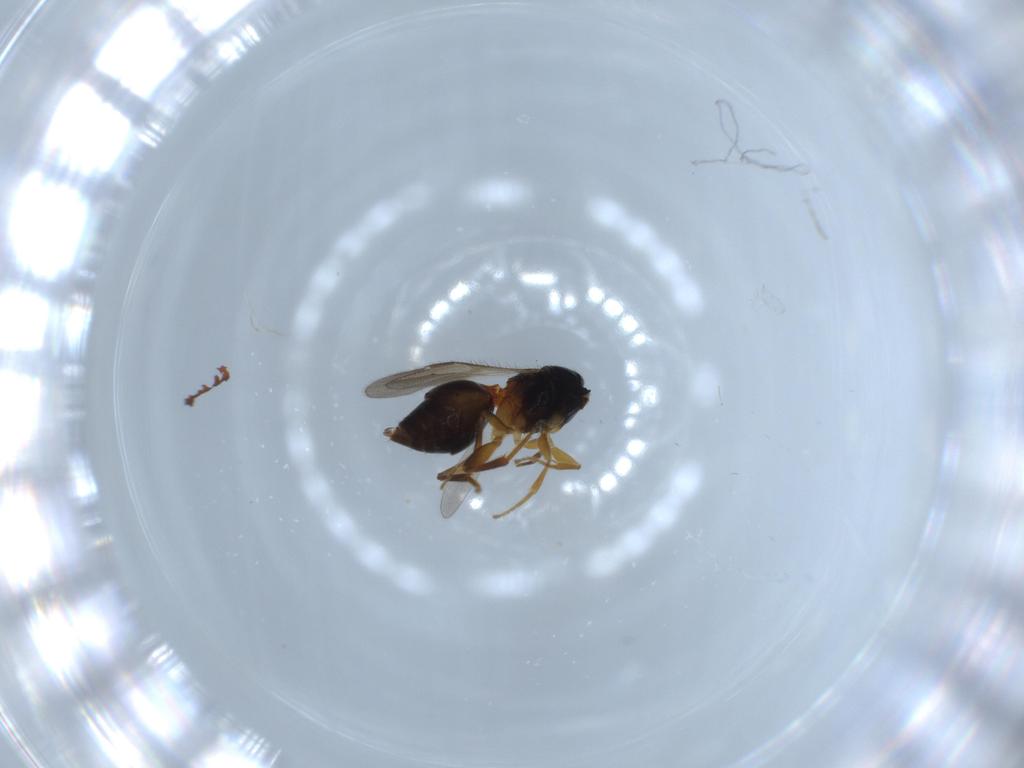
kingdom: Animalia
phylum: Arthropoda
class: Insecta
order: Hymenoptera
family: Megaspilidae
